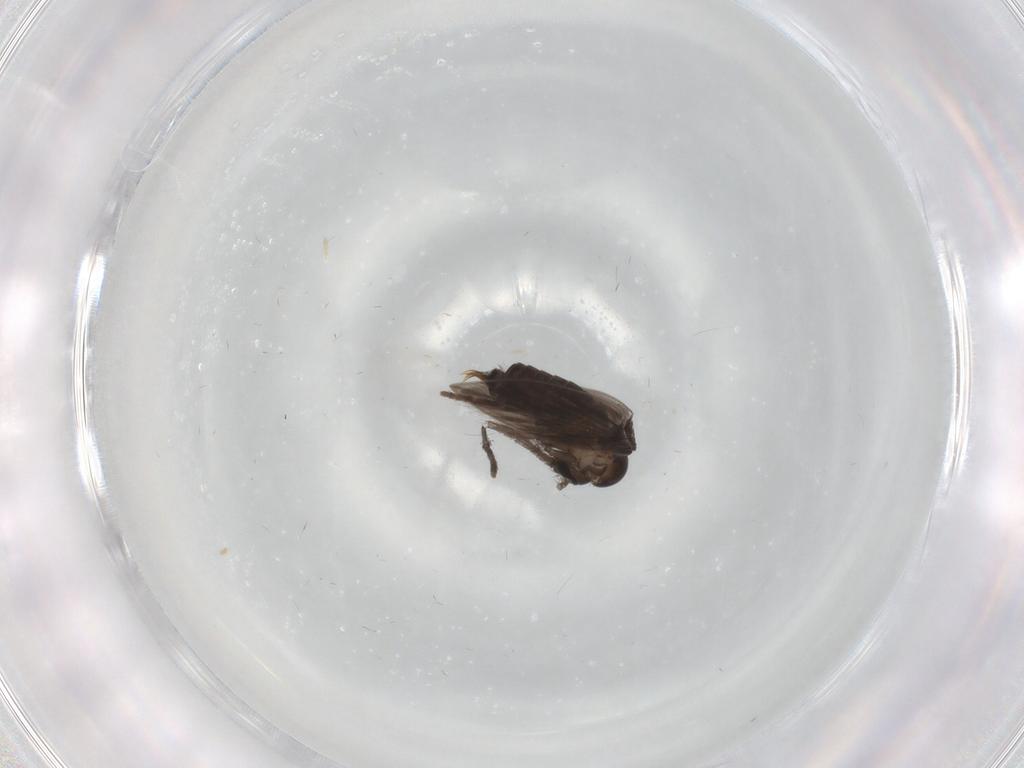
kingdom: Animalia
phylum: Arthropoda
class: Insecta
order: Diptera
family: Psychodidae
